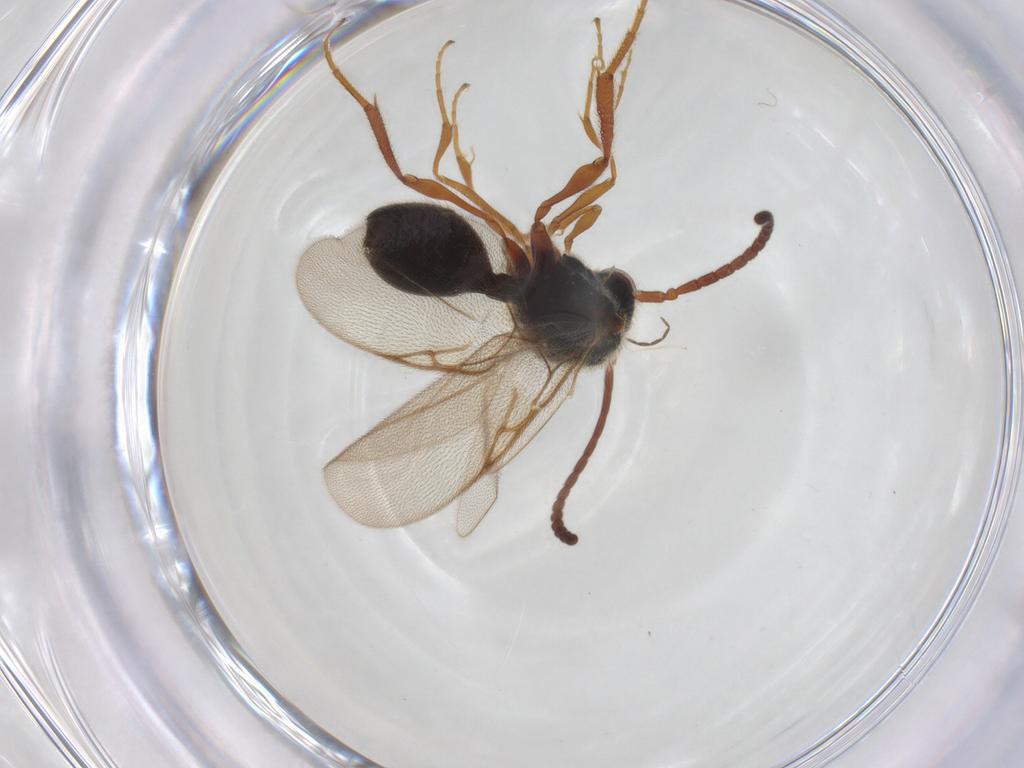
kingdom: Animalia
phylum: Arthropoda
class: Insecta
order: Hymenoptera
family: Diapriidae
